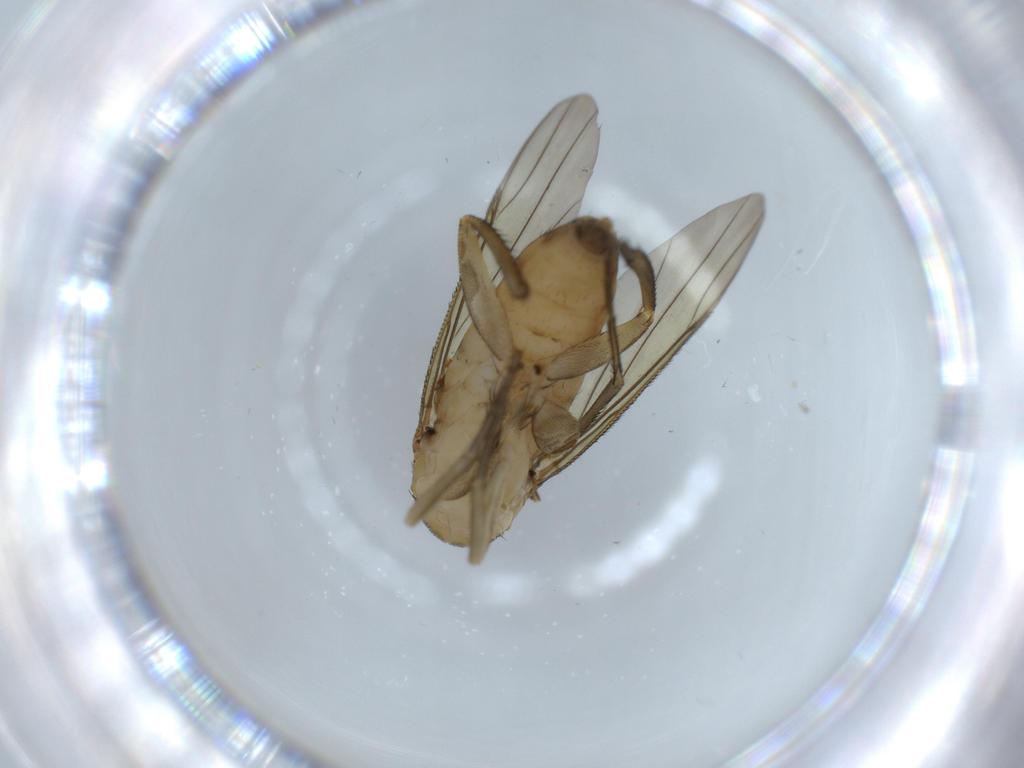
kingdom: Animalia
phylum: Arthropoda
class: Insecta
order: Diptera
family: Phoridae
